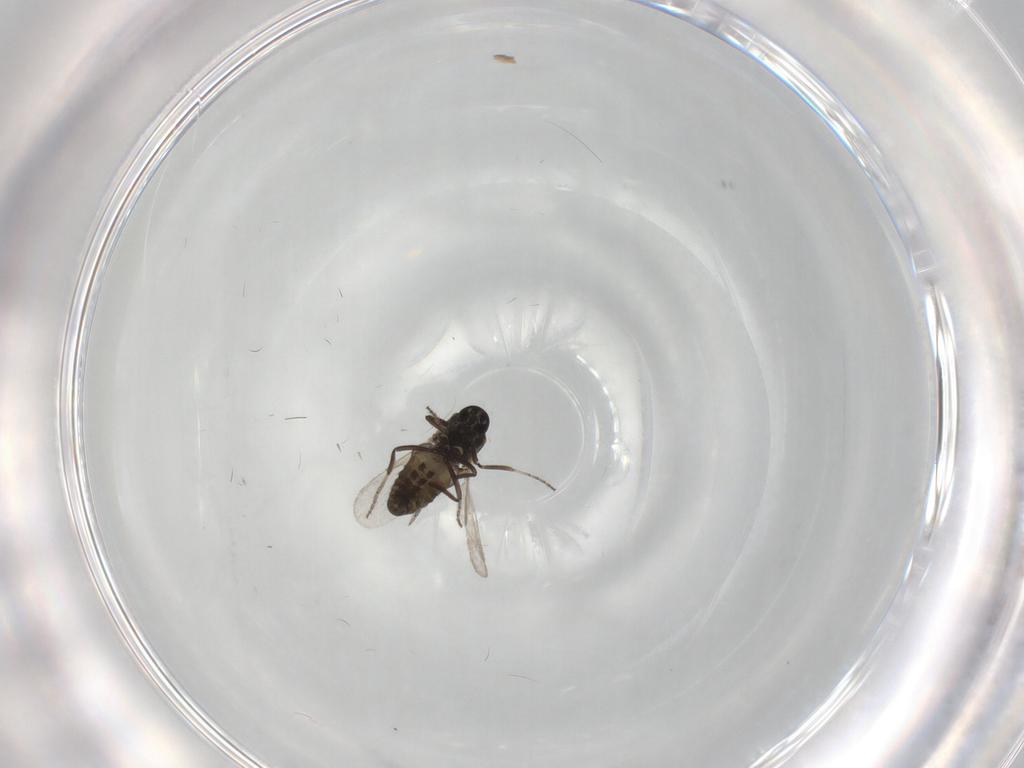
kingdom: Animalia
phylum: Arthropoda
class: Insecta
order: Diptera
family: Ceratopogonidae
